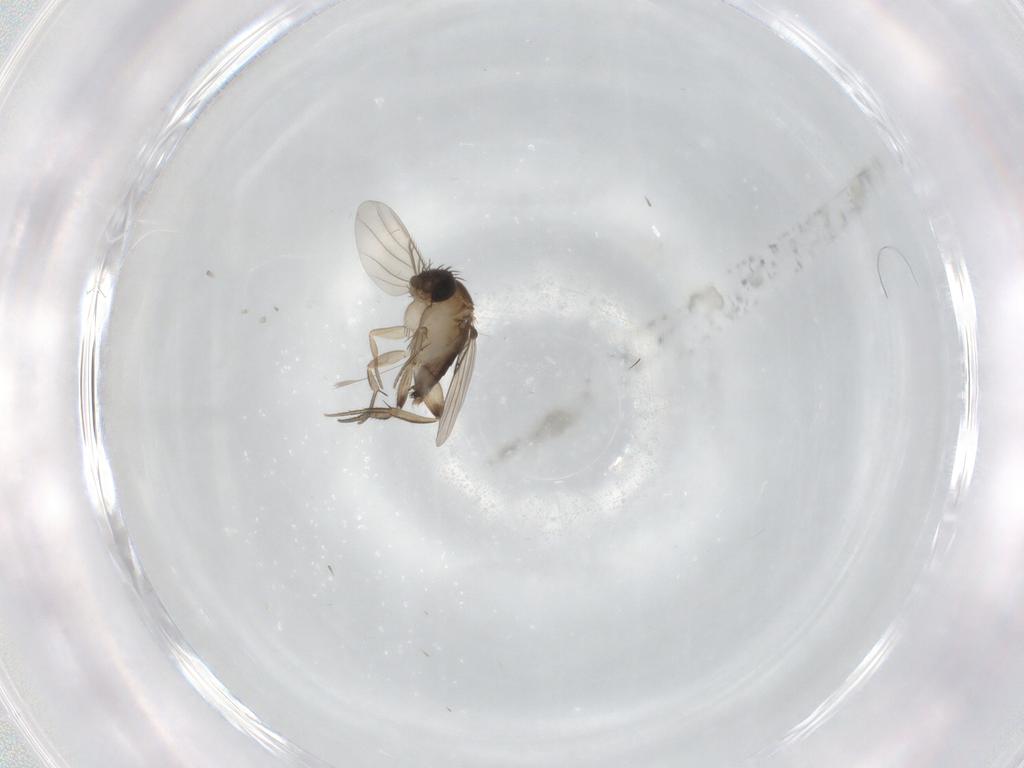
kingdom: Animalia
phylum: Arthropoda
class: Insecta
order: Diptera
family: Phoridae
